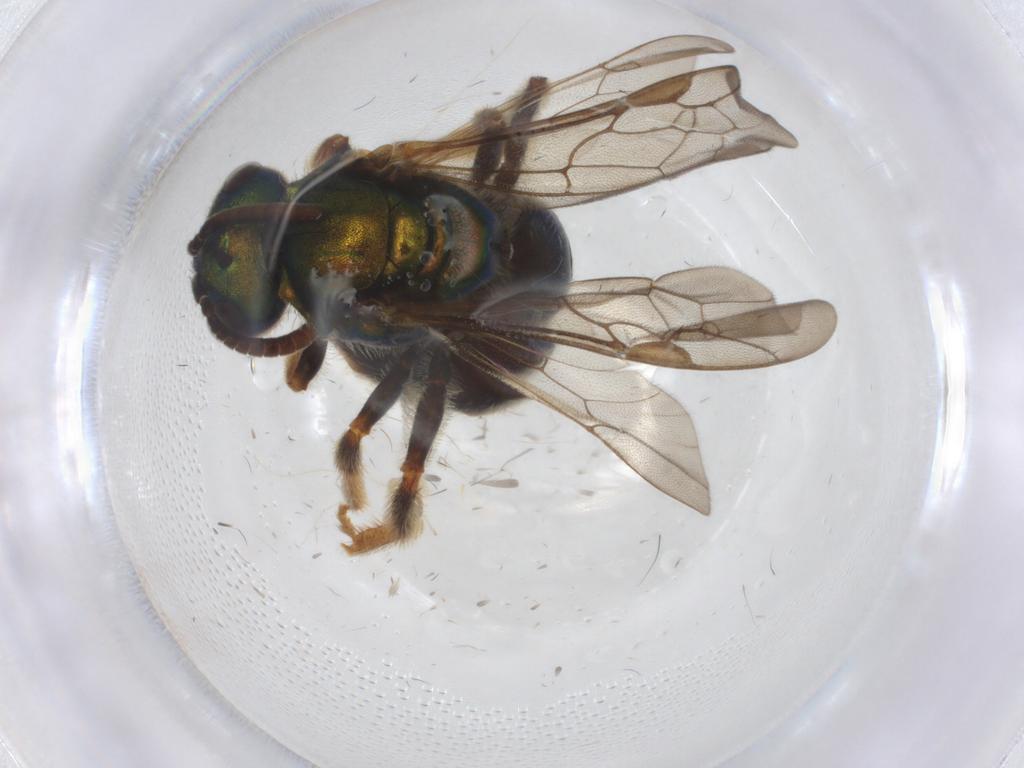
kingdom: Animalia
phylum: Arthropoda
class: Insecta
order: Hymenoptera
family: Halictidae
